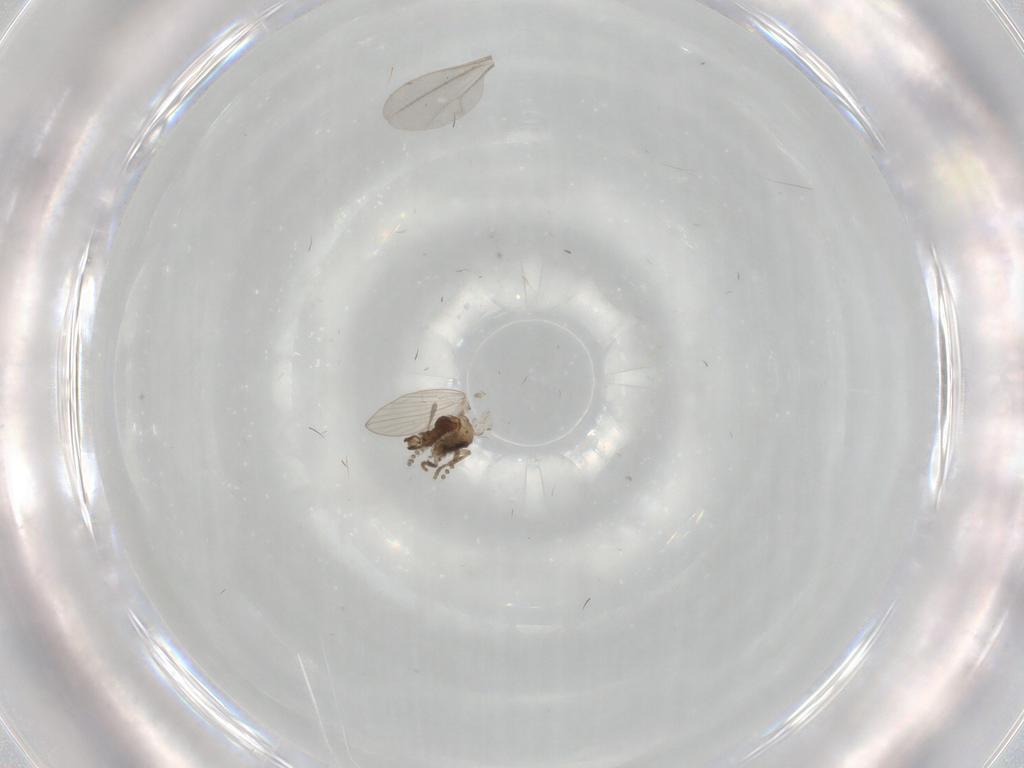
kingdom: Animalia
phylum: Arthropoda
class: Insecta
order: Diptera
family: Psychodidae
